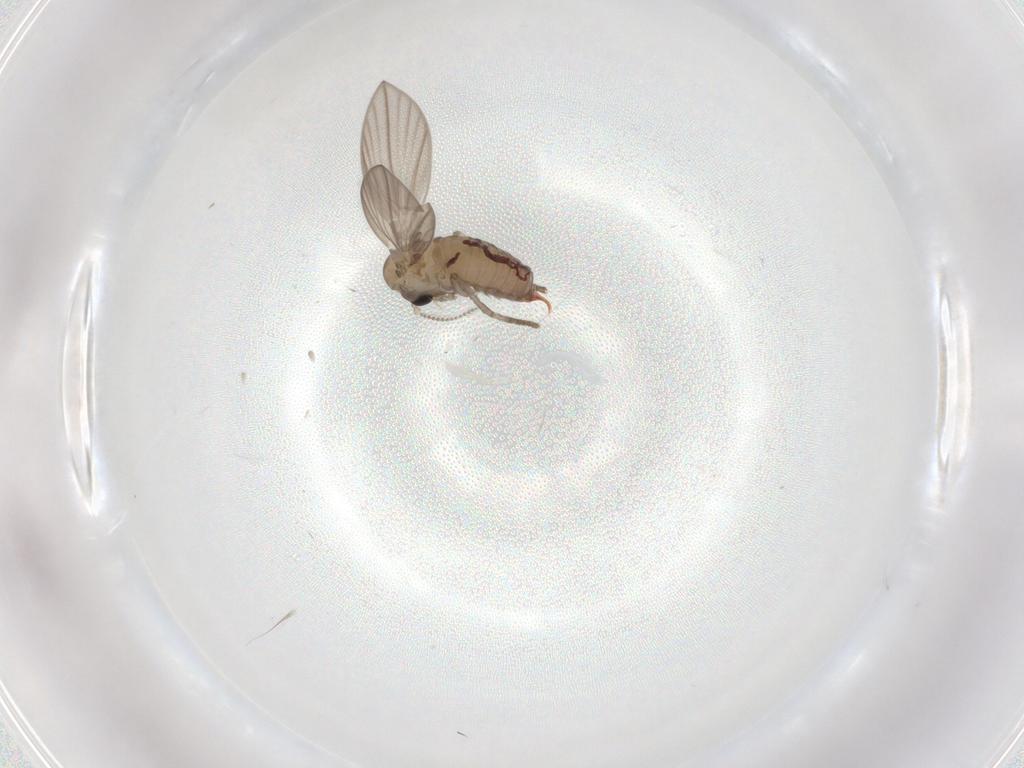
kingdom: Animalia
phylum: Arthropoda
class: Insecta
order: Diptera
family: Psychodidae
